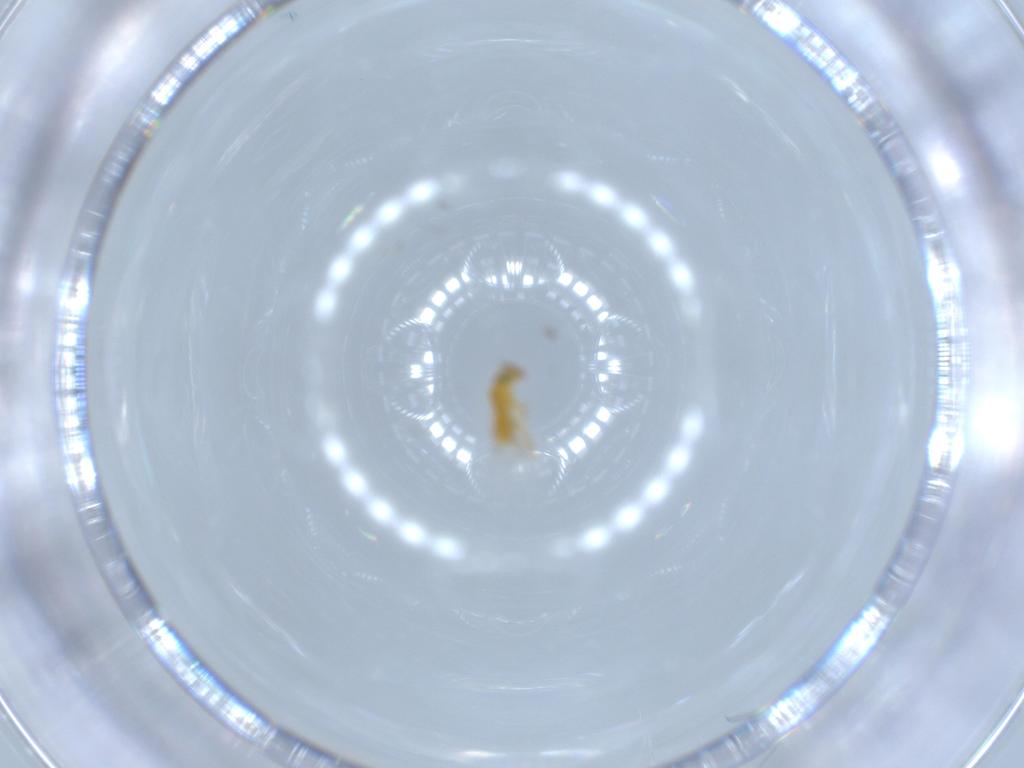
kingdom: Animalia
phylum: Arthropoda
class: Insecta
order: Hymenoptera
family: Encyrtidae
